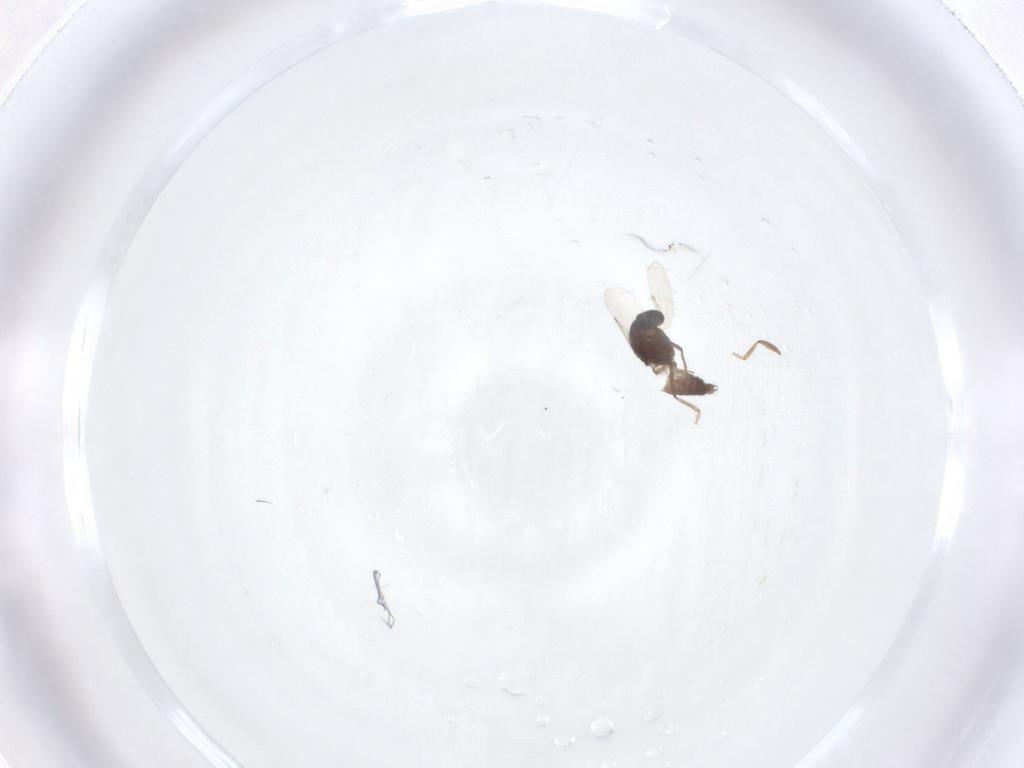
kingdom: Animalia
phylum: Arthropoda
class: Insecta
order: Diptera
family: Ceratopogonidae
